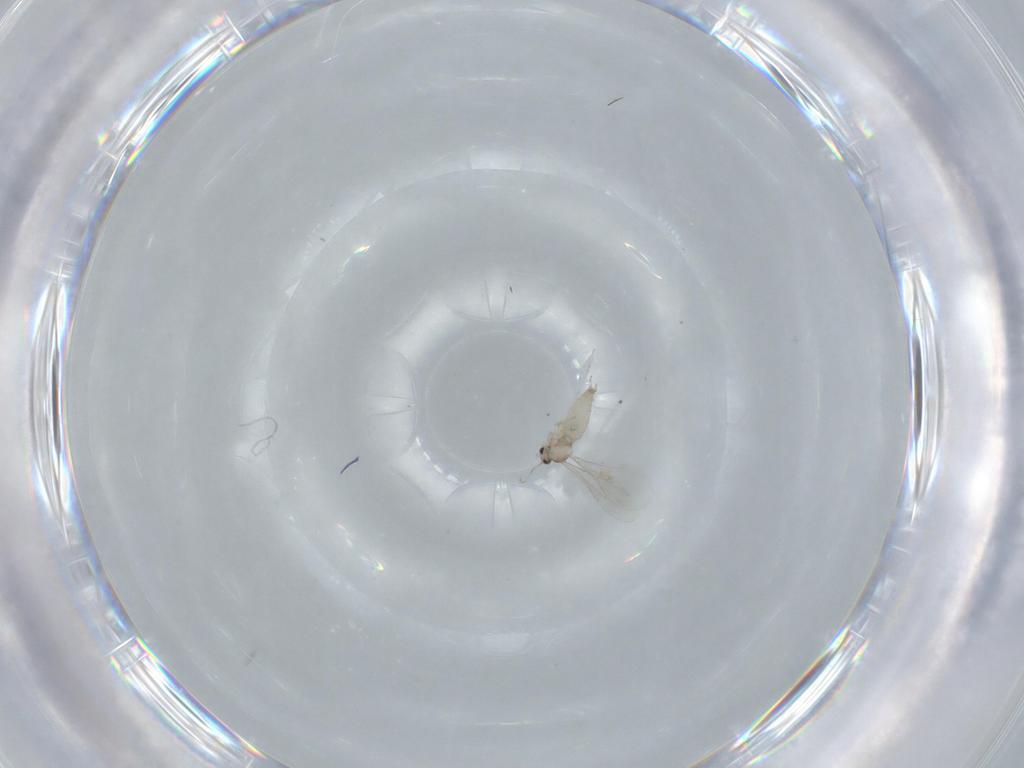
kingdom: Animalia
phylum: Arthropoda
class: Insecta
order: Diptera
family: Cecidomyiidae
